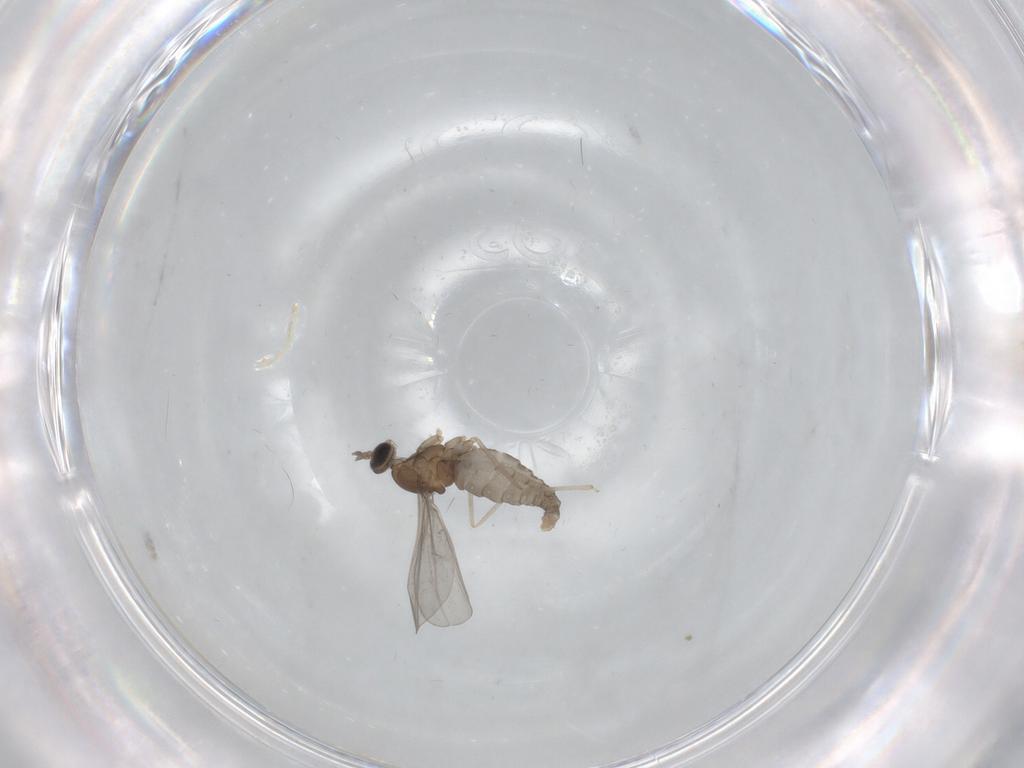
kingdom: Animalia
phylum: Arthropoda
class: Insecta
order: Diptera
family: Ceratopogonidae
